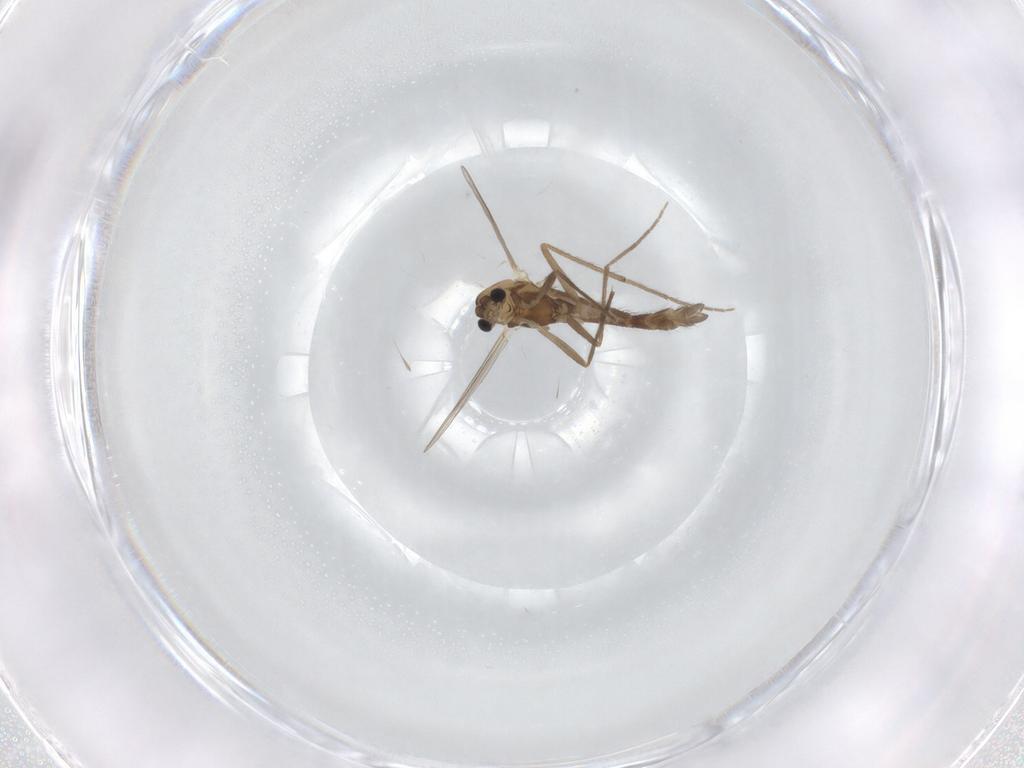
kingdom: Animalia
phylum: Arthropoda
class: Insecta
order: Diptera
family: Chironomidae
